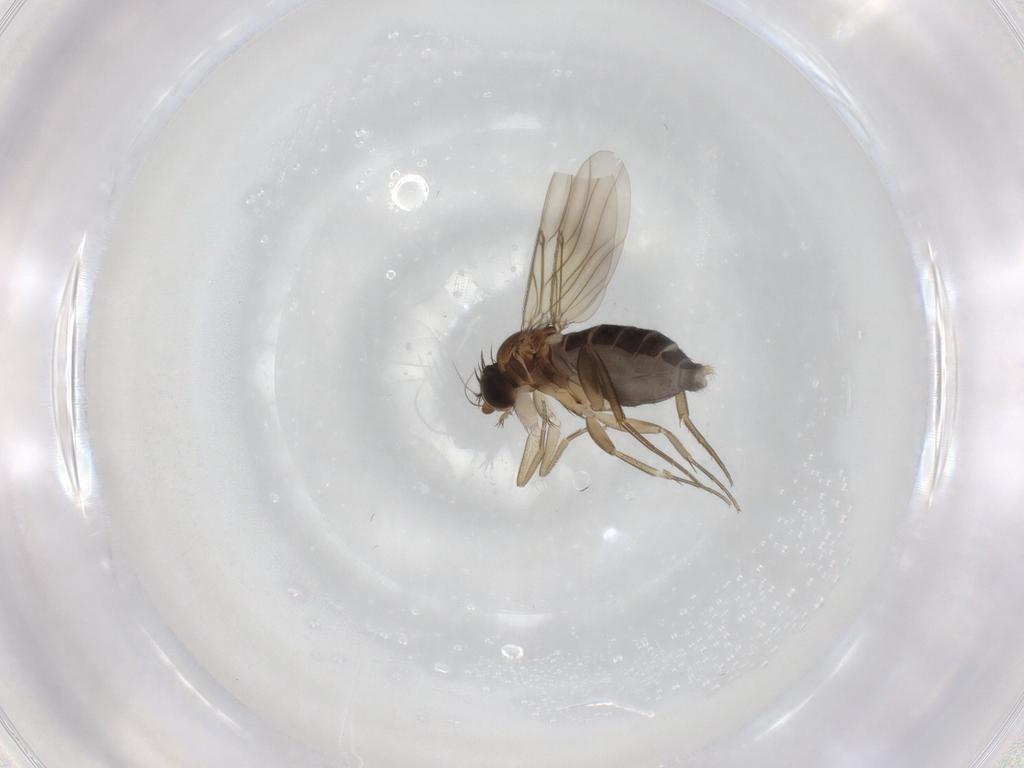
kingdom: Animalia
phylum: Arthropoda
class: Insecta
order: Diptera
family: Phoridae
